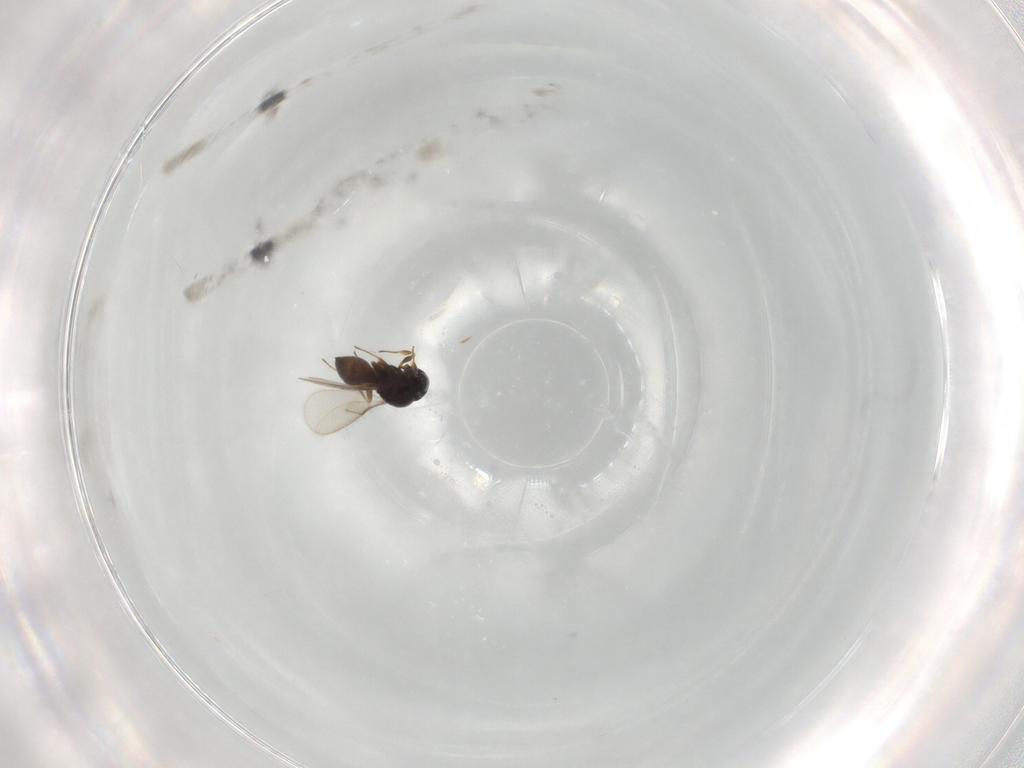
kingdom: Animalia
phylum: Arthropoda
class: Insecta
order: Hymenoptera
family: Scelionidae
